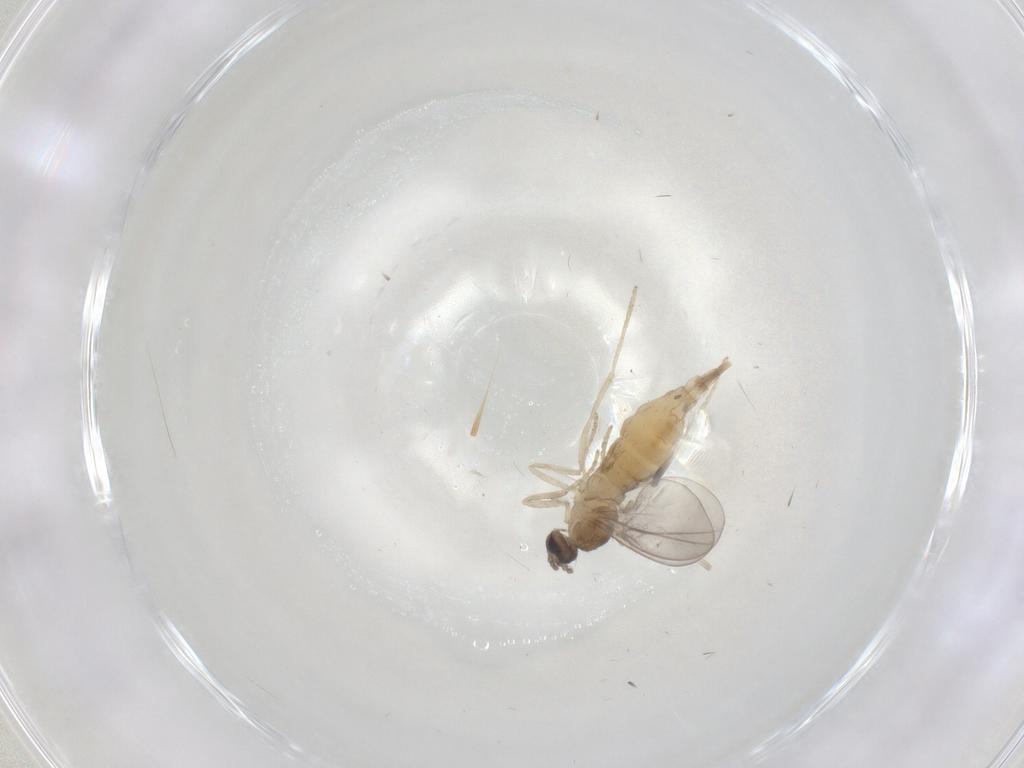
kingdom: Animalia
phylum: Arthropoda
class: Insecta
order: Diptera
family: Cecidomyiidae
